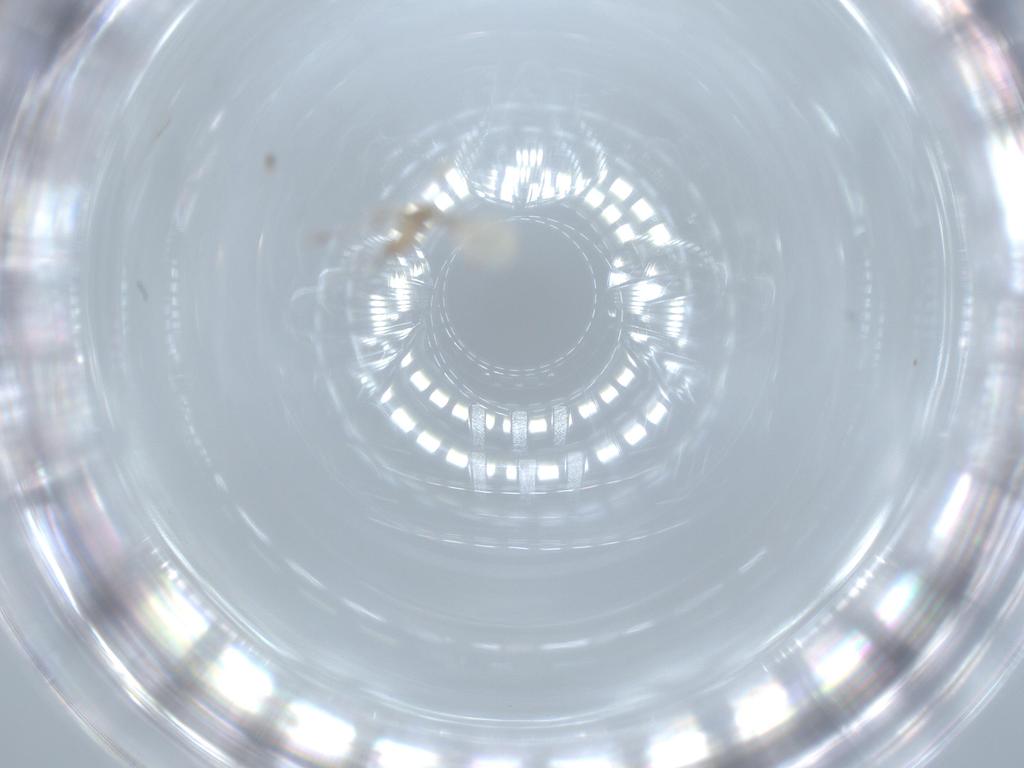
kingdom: Animalia
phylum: Arthropoda
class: Insecta
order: Diptera
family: Cecidomyiidae
